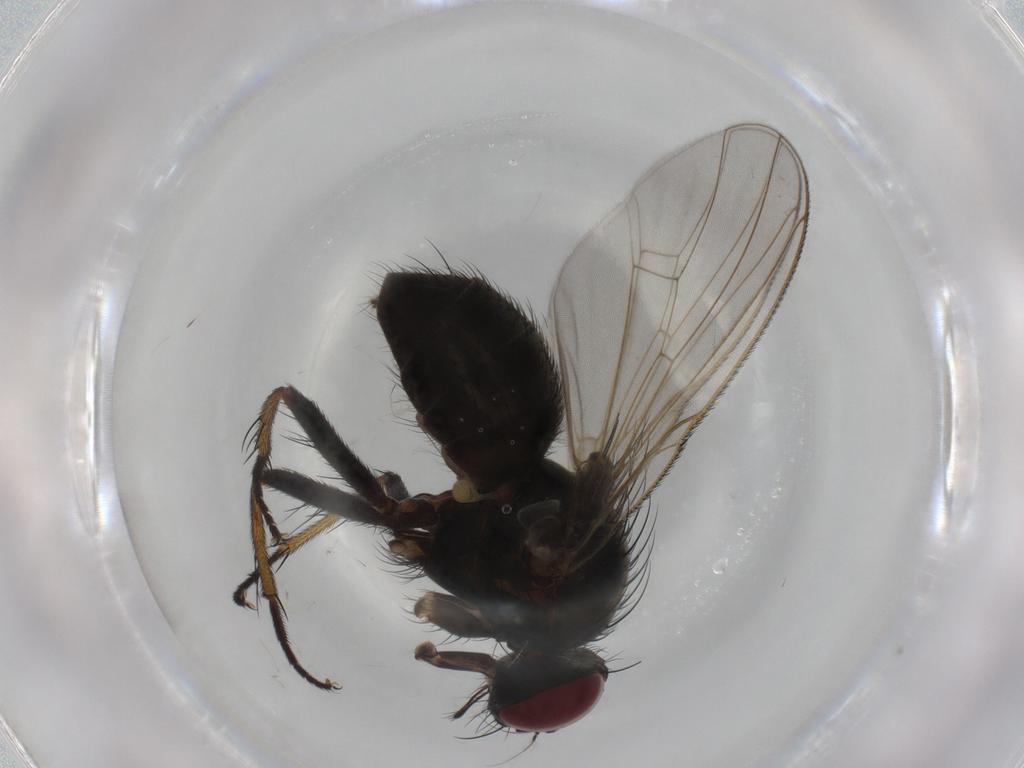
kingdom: Animalia
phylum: Arthropoda
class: Insecta
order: Diptera
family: Chironomidae
